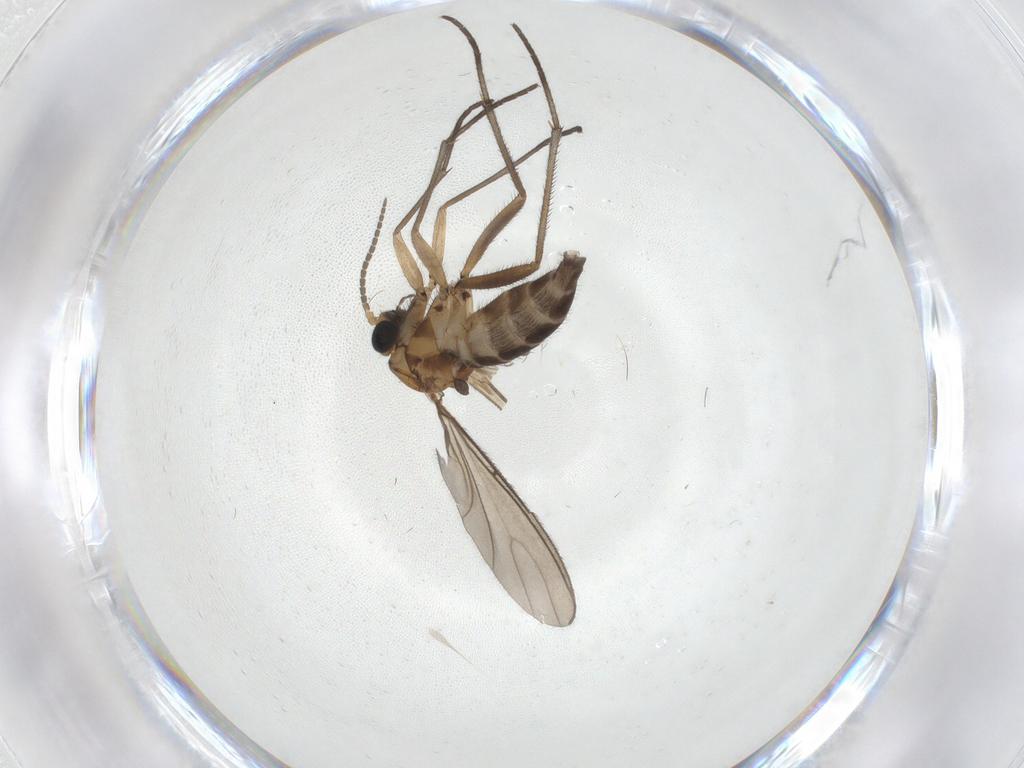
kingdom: Animalia
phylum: Arthropoda
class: Insecta
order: Diptera
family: Sciaridae
